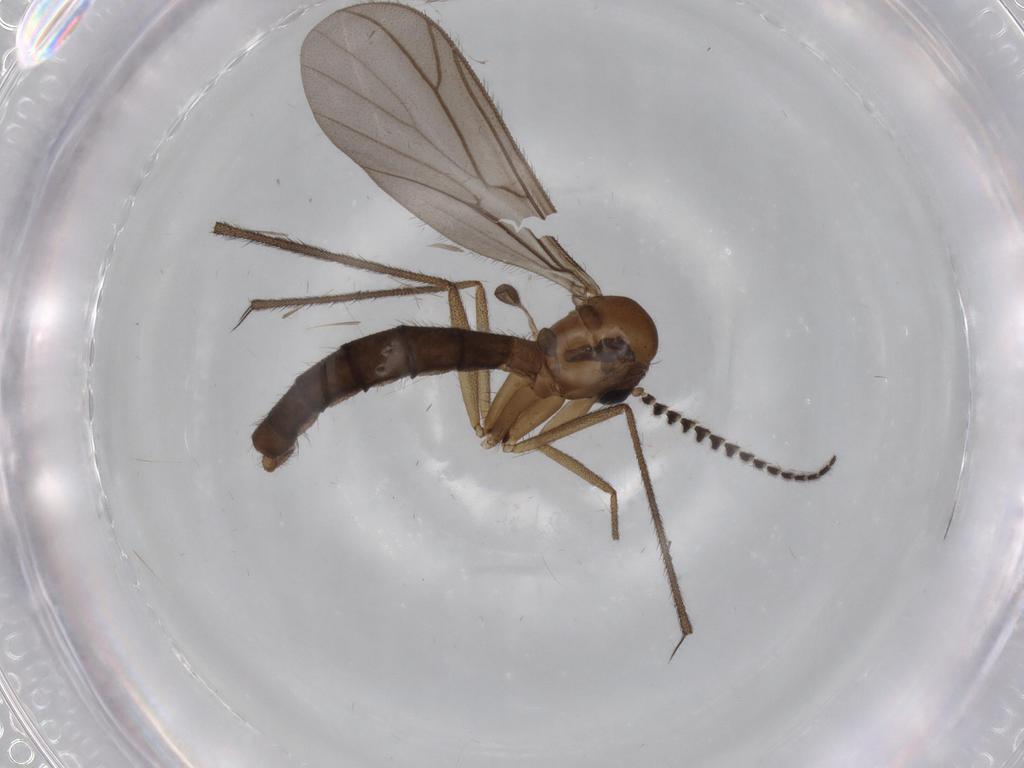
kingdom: Animalia
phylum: Arthropoda
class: Insecta
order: Diptera
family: Ditomyiidae
